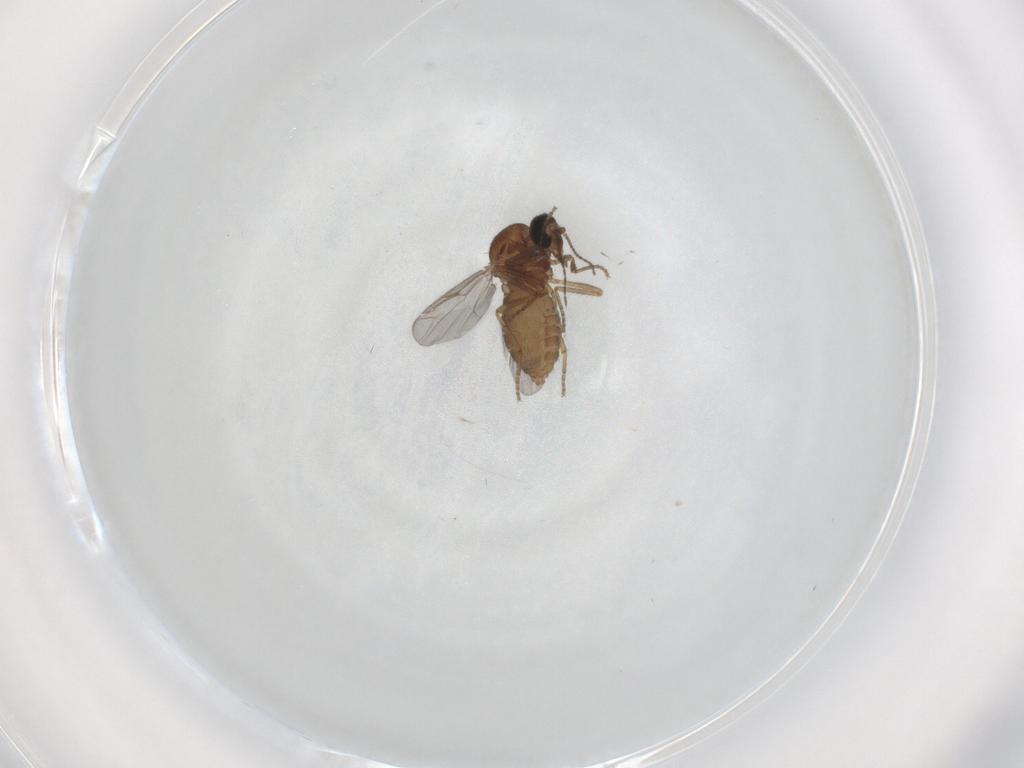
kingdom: Animalia
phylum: Arthropoda
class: Insecta
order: Diptera
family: Ceratopogonidae
